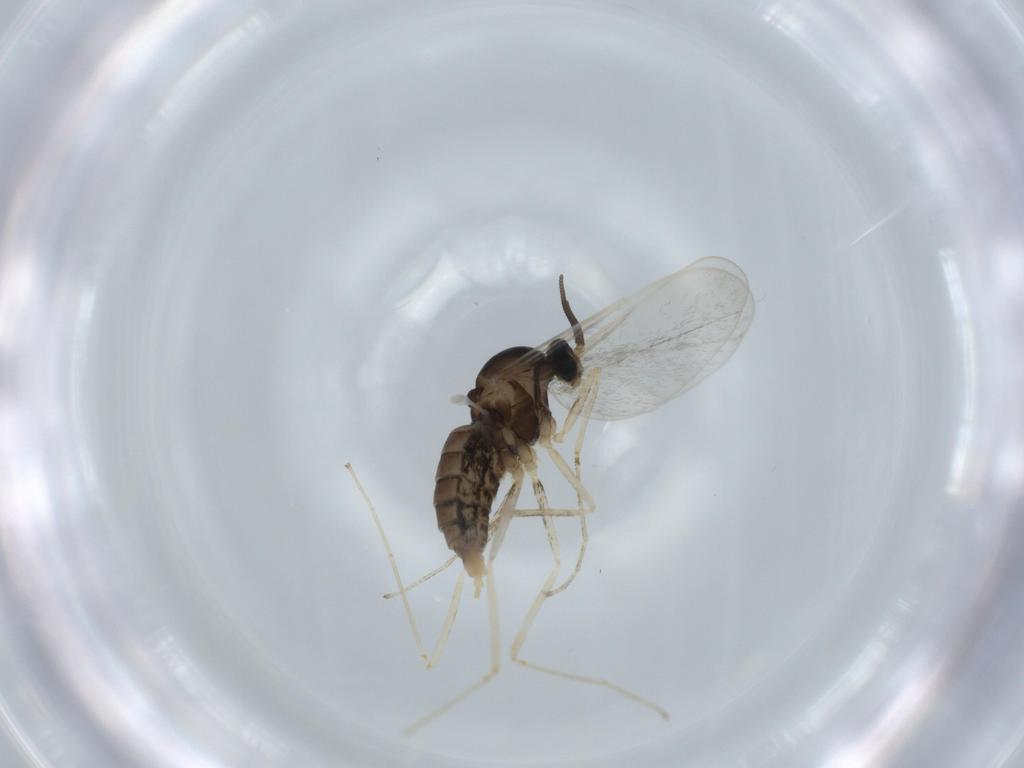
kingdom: Animalia
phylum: Arthropoda
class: Insecta
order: Diptera
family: Cecidomyiidae
